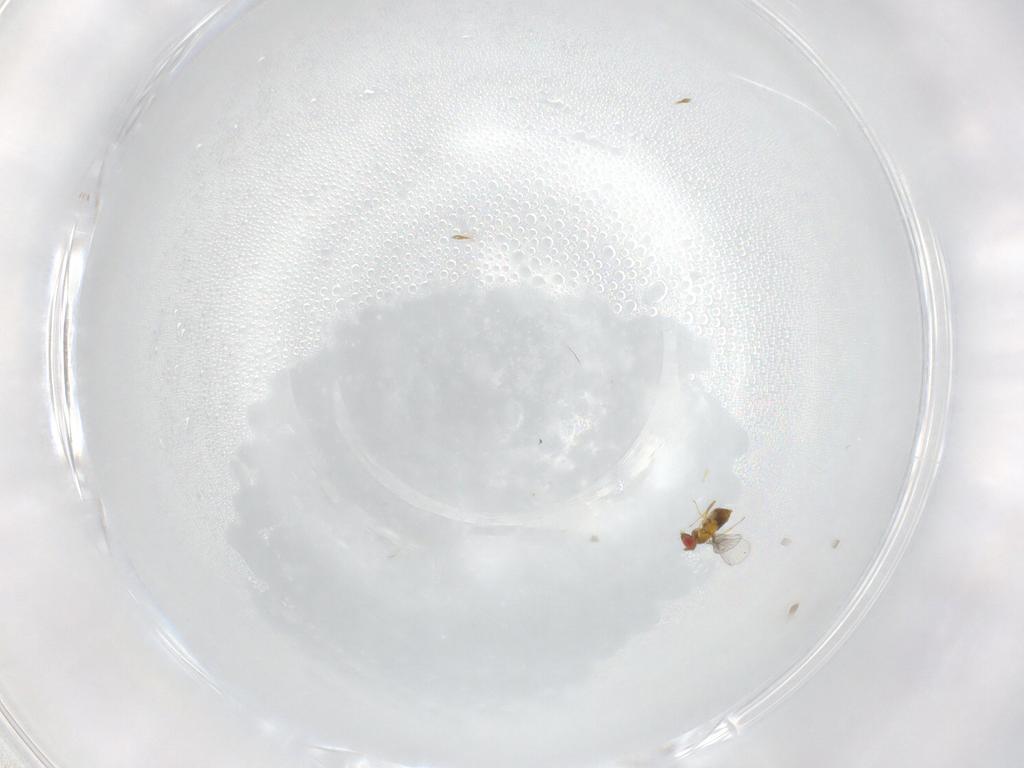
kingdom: Animalia
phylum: Arthropoda
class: Insecta
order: Hymenoptera
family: Trichogrammatidae
